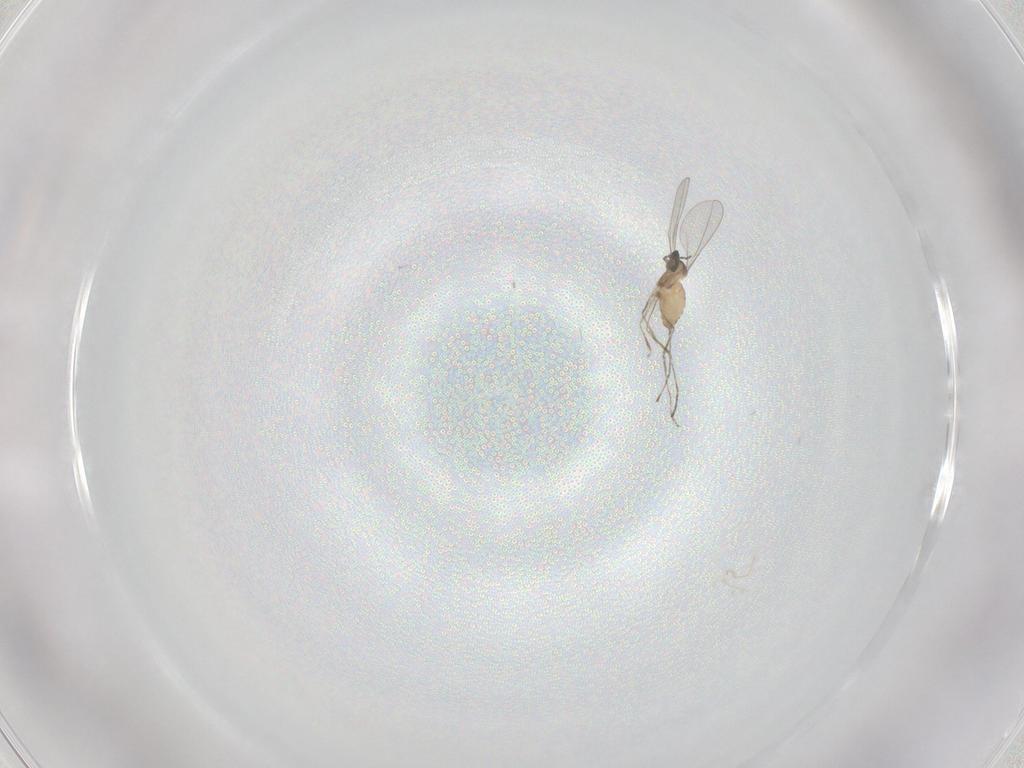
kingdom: Animalia
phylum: Arthropoda
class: Insecta
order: Diptera
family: Cecidomyiidae
